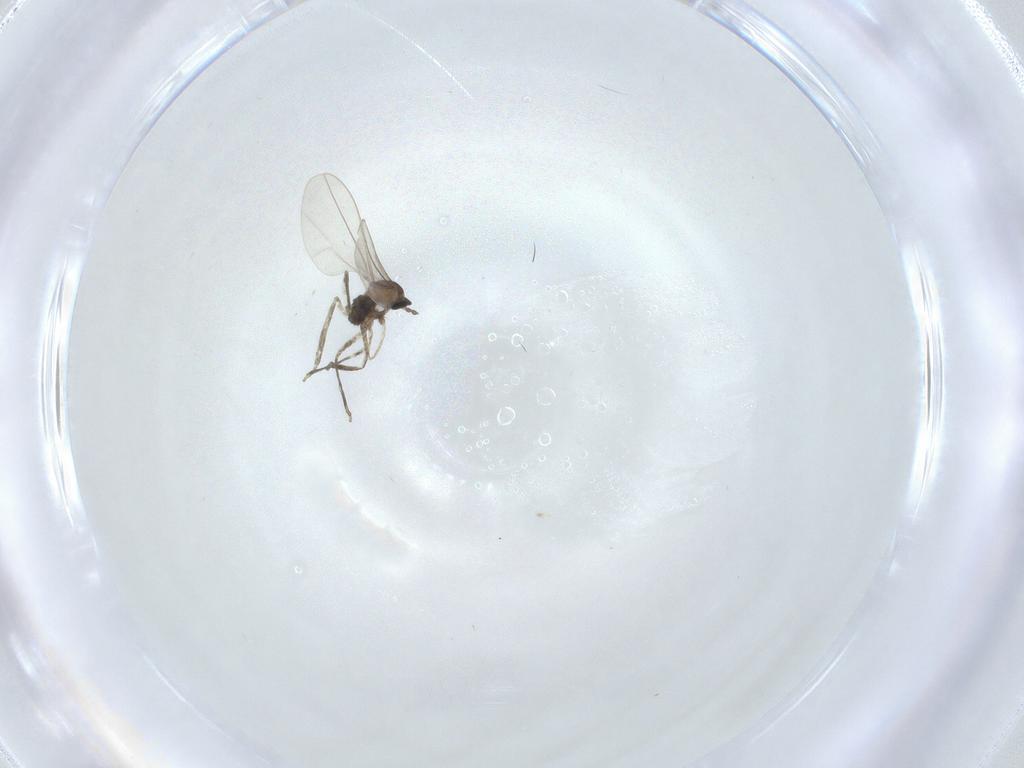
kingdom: Animalia
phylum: Arthropoda
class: Insecta
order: Diptera
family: Cecidomyiidae
